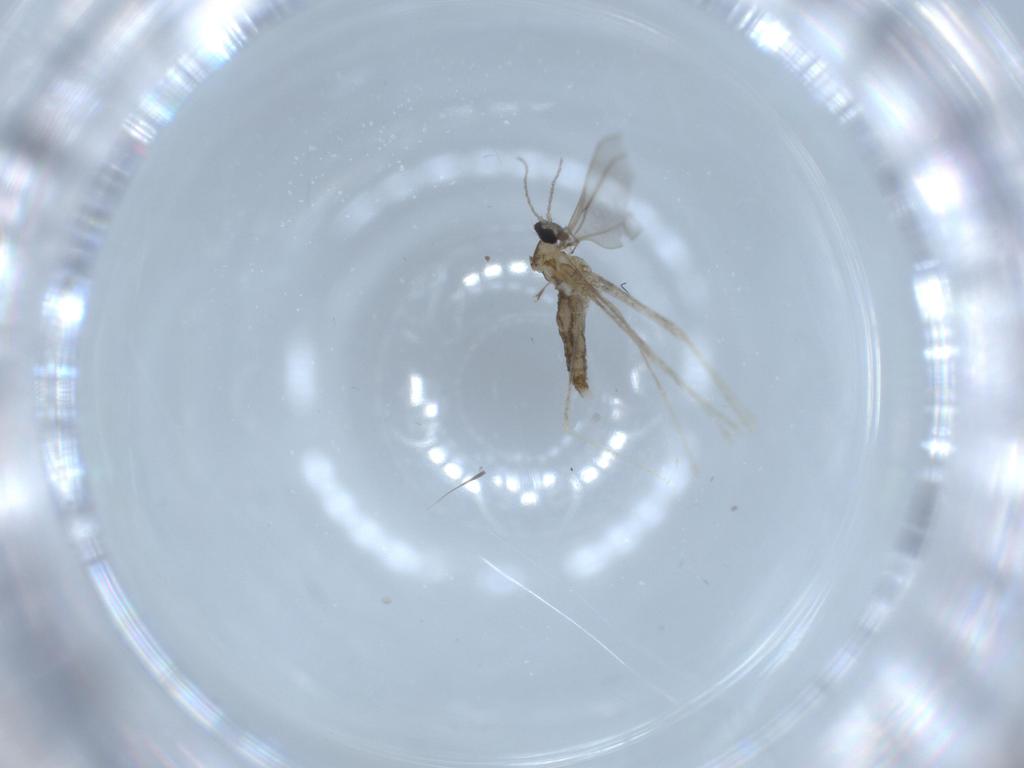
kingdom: Animalia
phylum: Arthropoda
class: Insecta
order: Diptera
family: Cecidomyiidae
